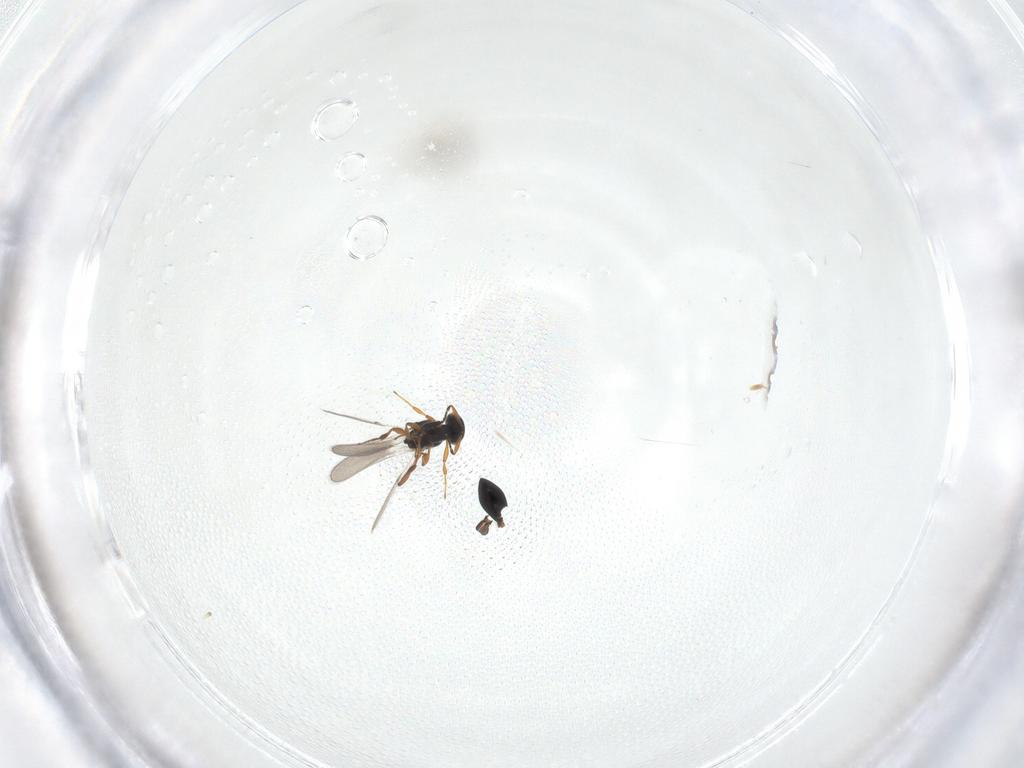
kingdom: Animalia
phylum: Arthropoda
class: Insecta
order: Hymenoptera
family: Platygastridae
